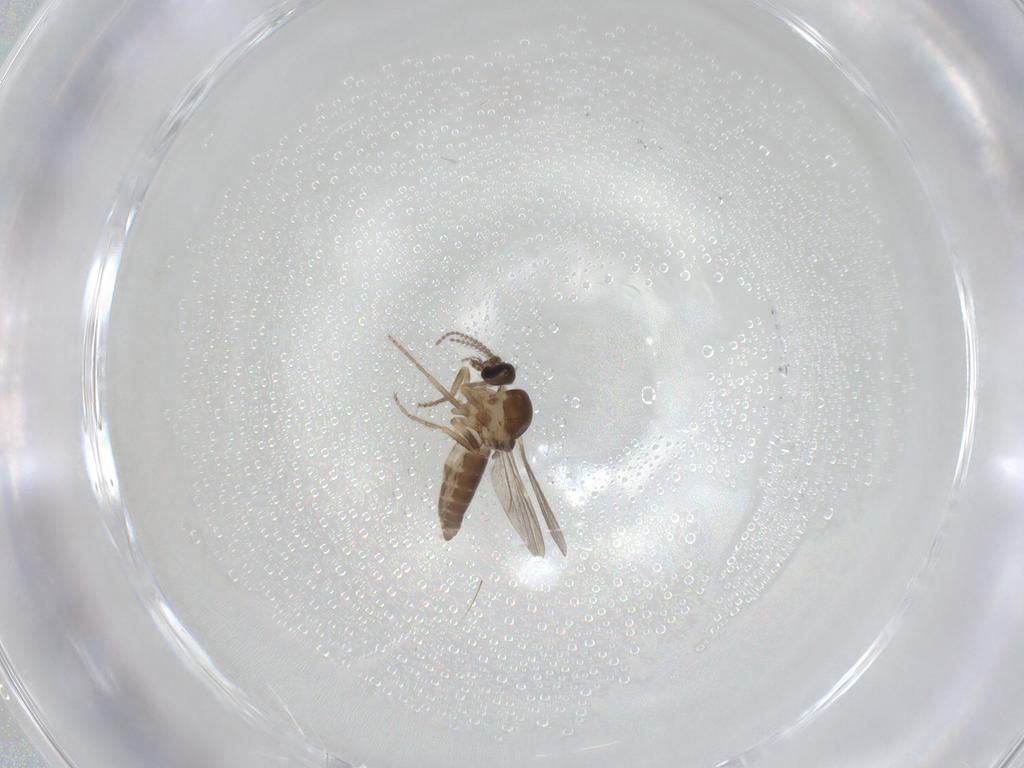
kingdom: Animalia
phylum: Arthropoda
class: Insecta
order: Diptera
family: Ceratopogonidae
